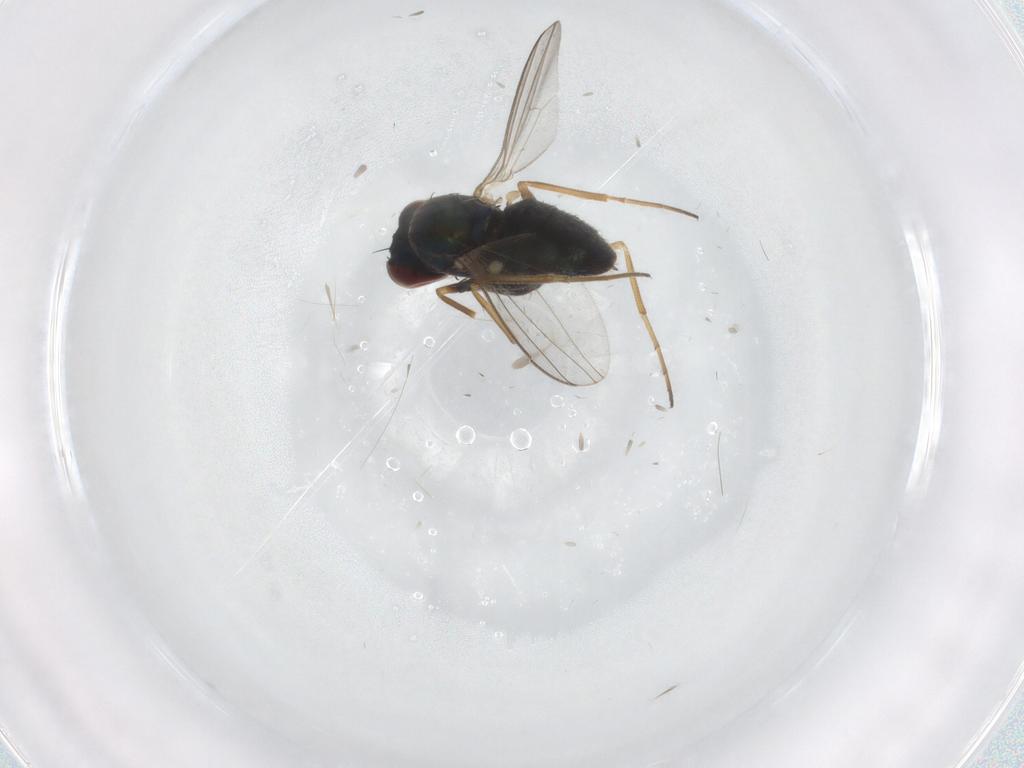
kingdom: Animalia
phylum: Arthropoda
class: Insecta
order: Diptera
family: Dolichopodidae
